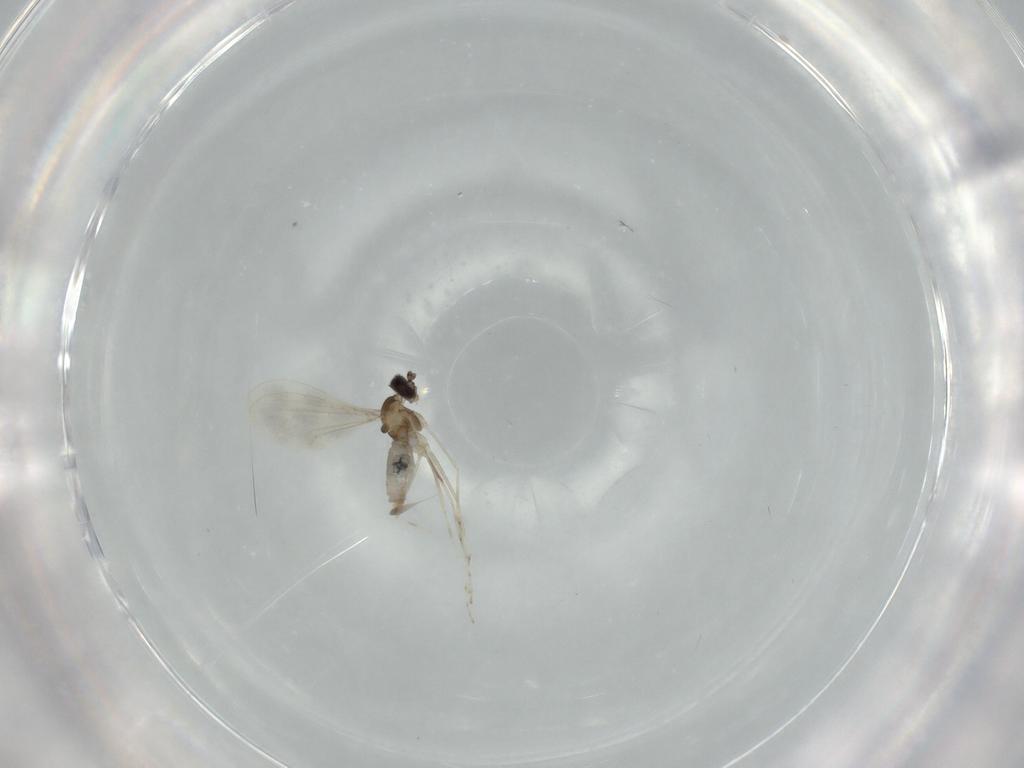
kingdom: Animalia
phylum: Arthropoda
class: Insecta
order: Diptera
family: Cecidomyiidae
